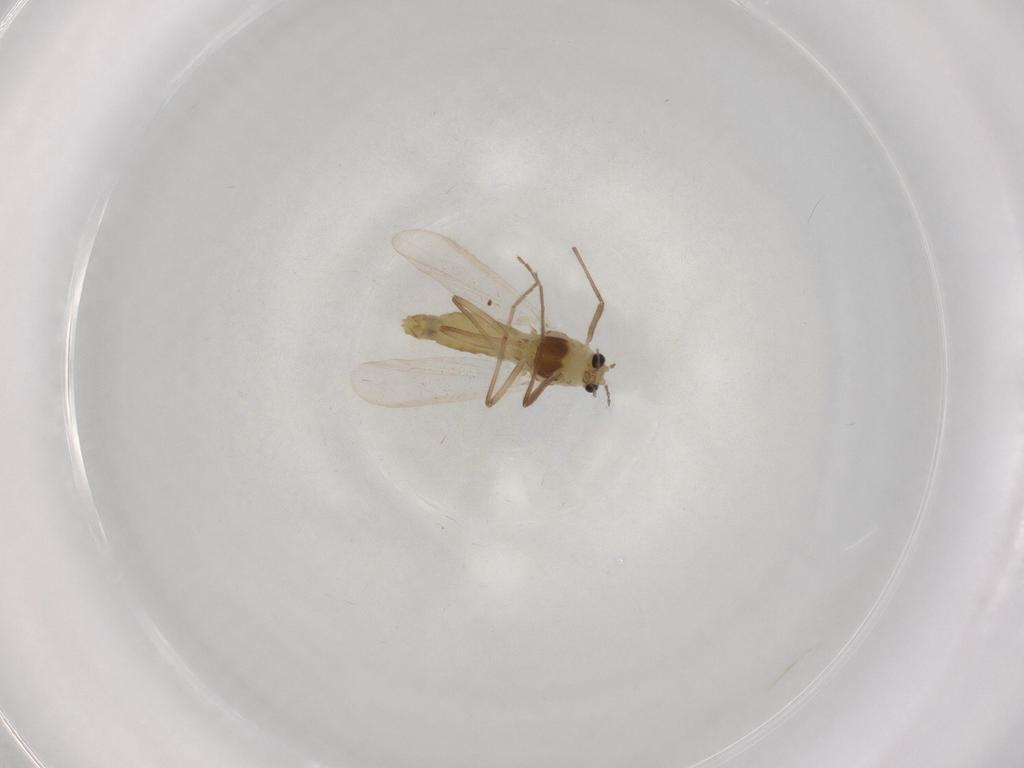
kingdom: Animalia
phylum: Arthropoda
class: Insecta
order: Diptera
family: Chironomidae
